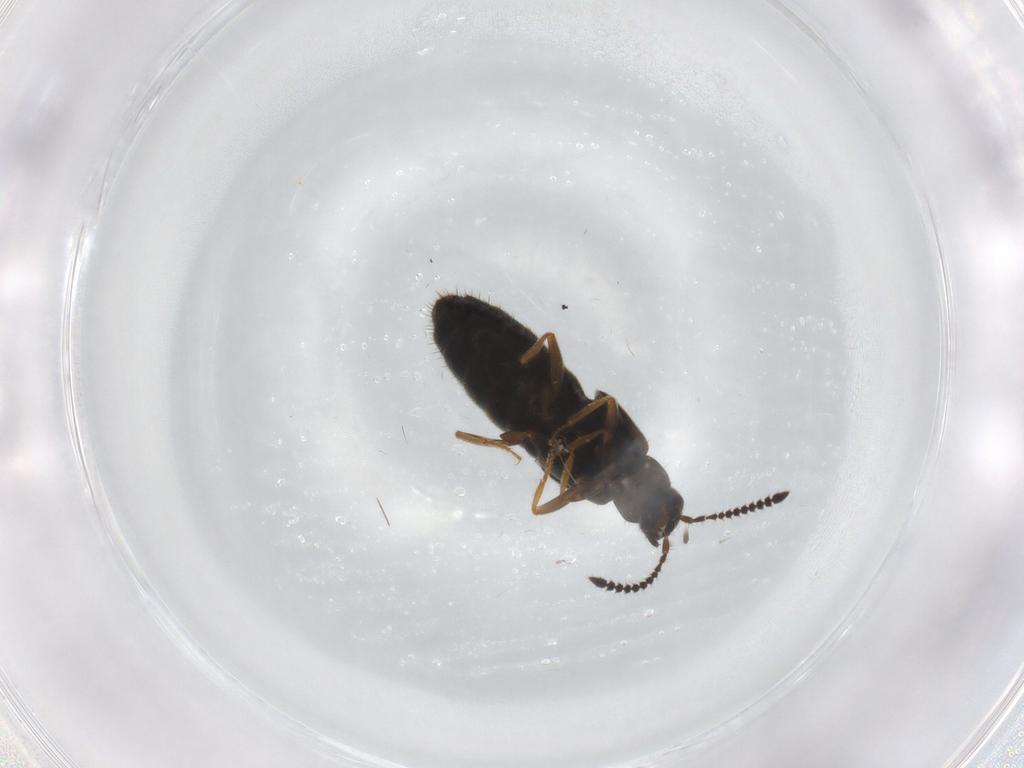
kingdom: Animalia
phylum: Arthropoda
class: Insecta
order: Coleoptera
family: Staphylinidae
